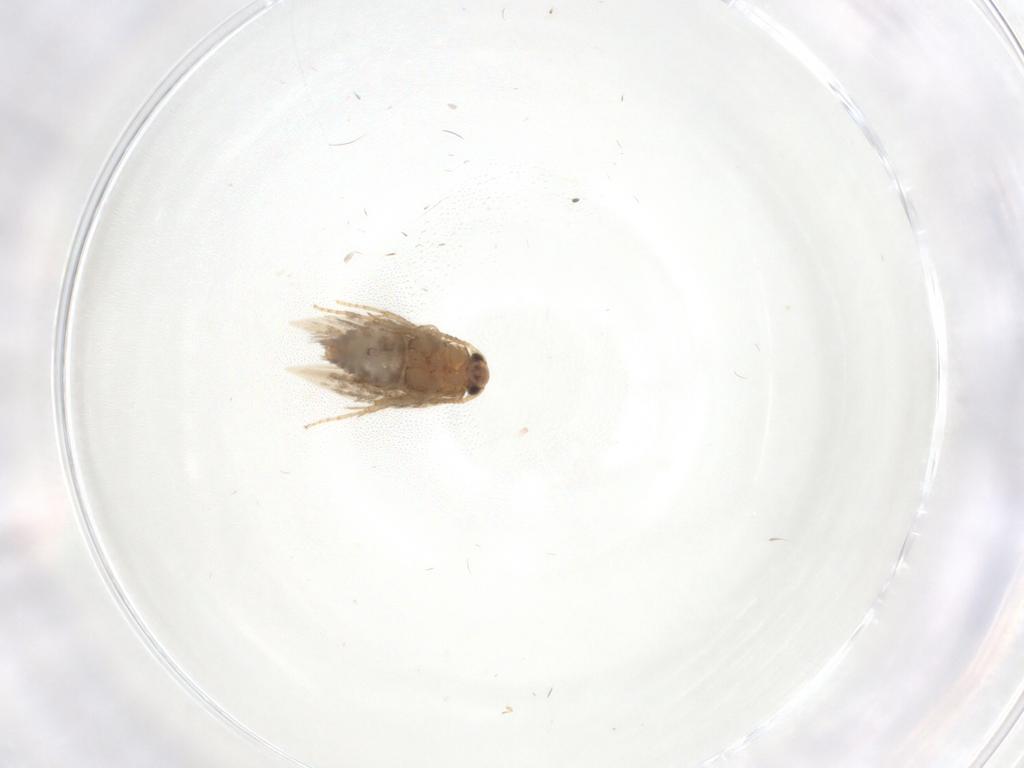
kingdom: Animalia
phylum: Arthropoda
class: Insecta
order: Lepidoptera
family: Nepticulidae
